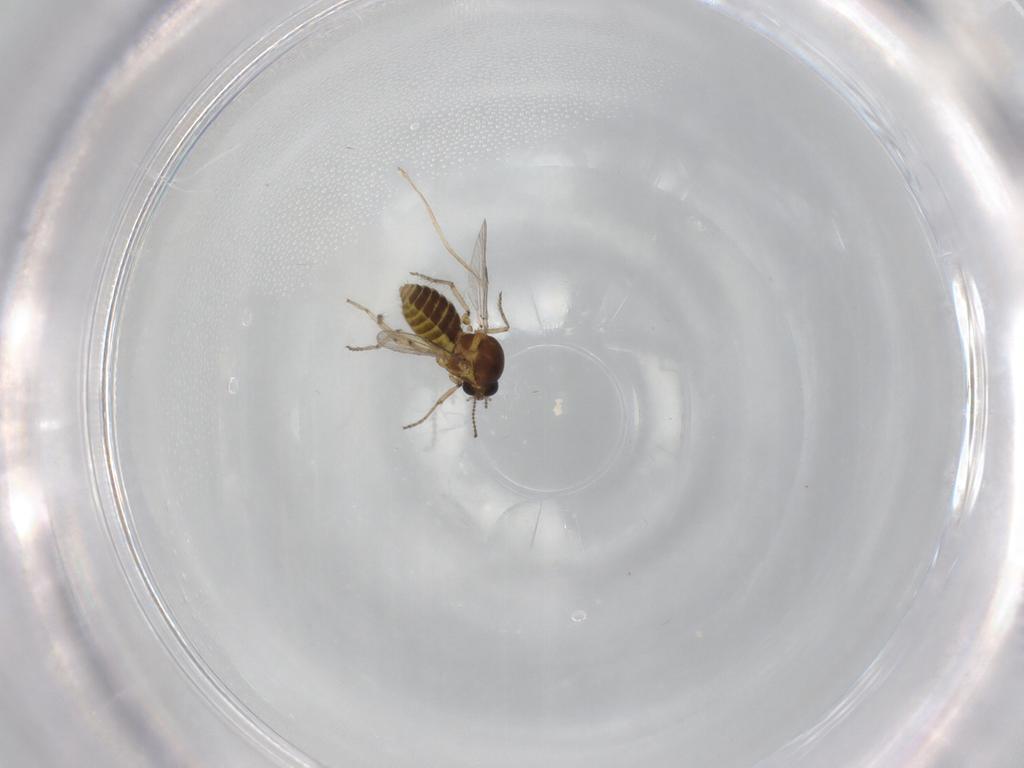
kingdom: Animalia
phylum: Arthropoda
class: Insecta
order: Diptera
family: Ceratopogonidae
